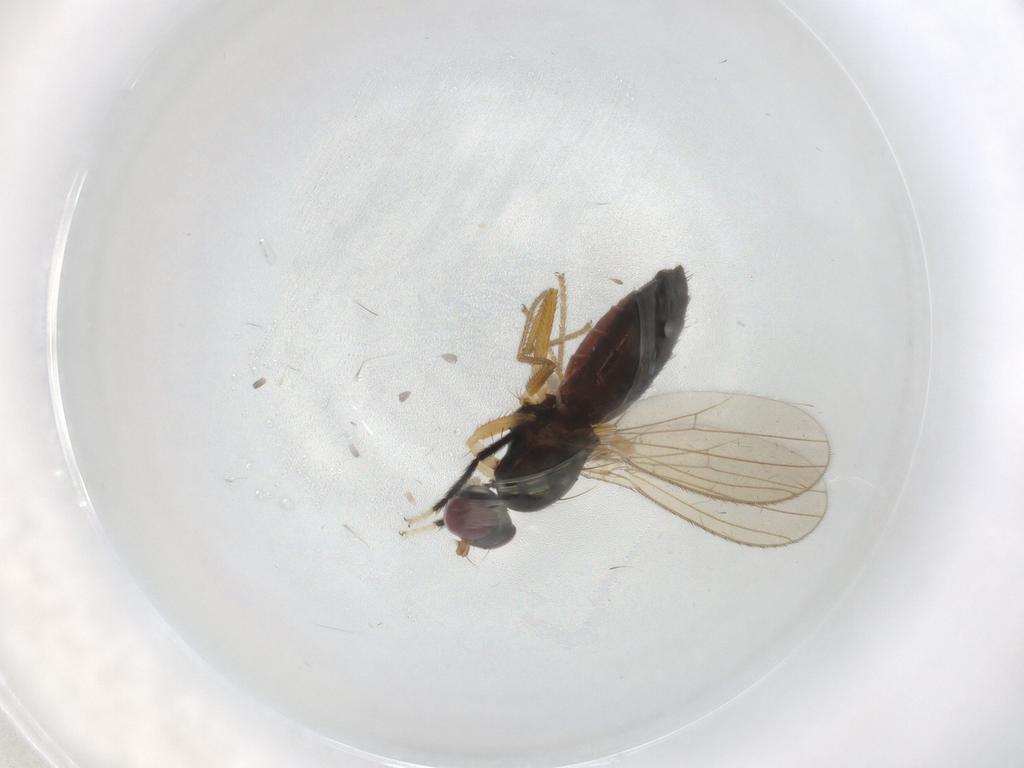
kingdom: Animalia
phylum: Arthropoda
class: Insecta
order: Diptera
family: Anthomyzidae
